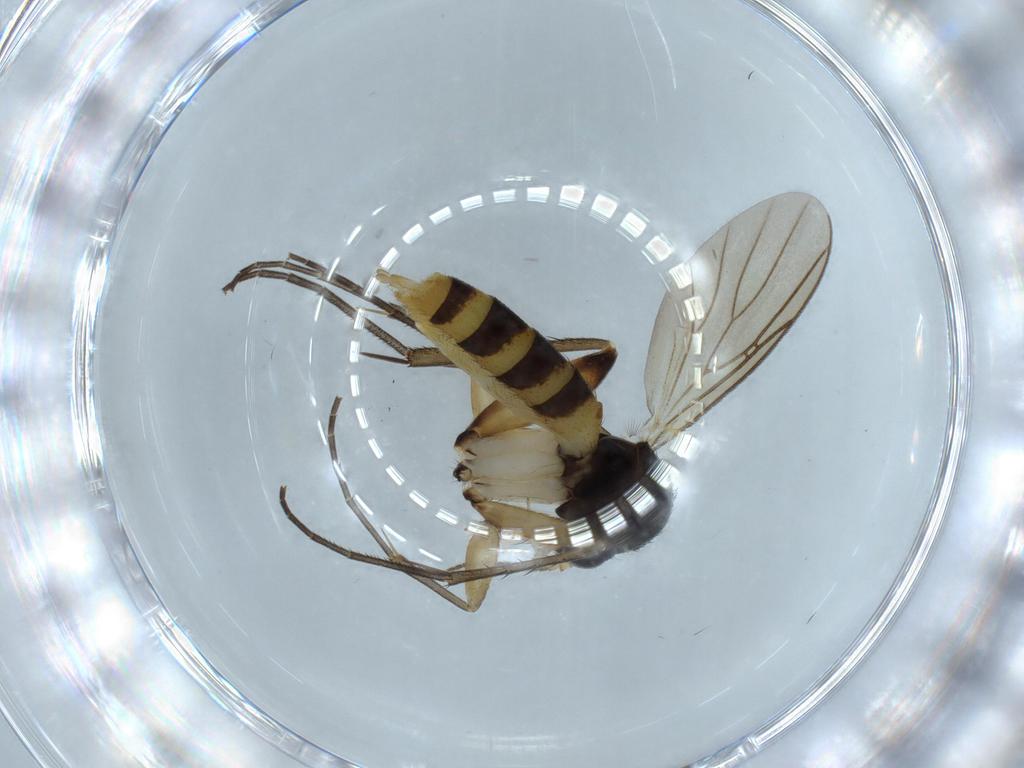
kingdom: Animalia
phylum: Arthropoda
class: Insecta
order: Diptera
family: Mycetophilidae
